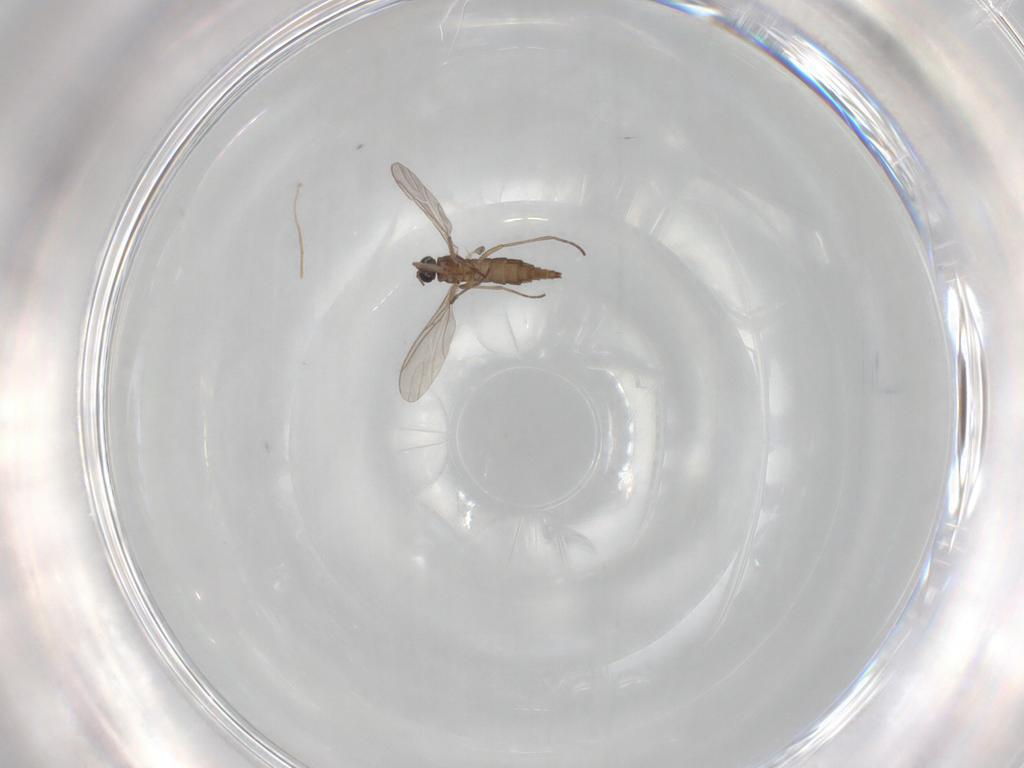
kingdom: Animalia
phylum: Arthropoda
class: Insecta
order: Diptera
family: Sciaridae
